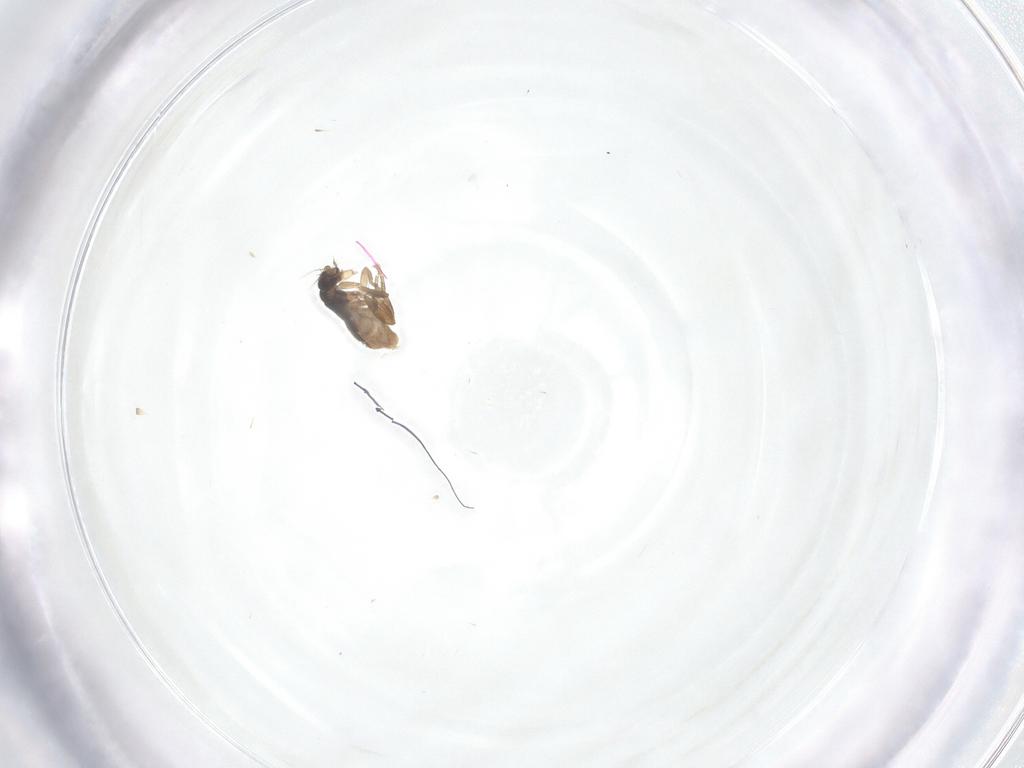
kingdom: Animalia
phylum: Arthropoda
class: Insecta
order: Diptera
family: Phoridae
